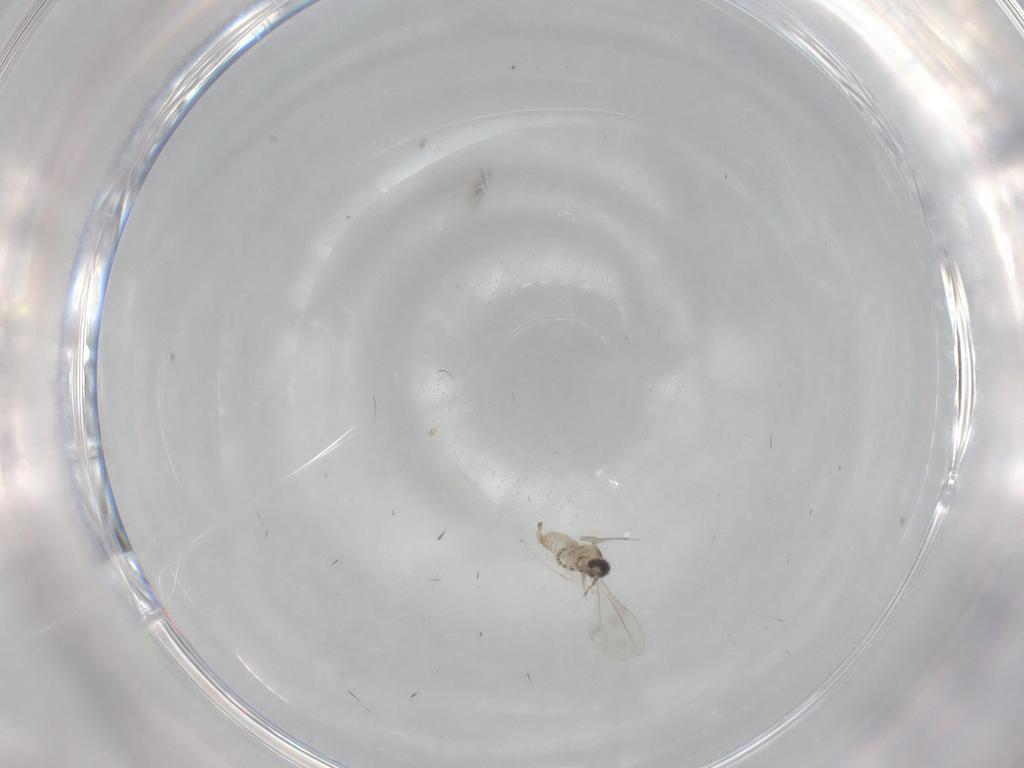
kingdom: Animalia
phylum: Arthropoda
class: Insecta
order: Diptera
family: Cecidomyiidae
